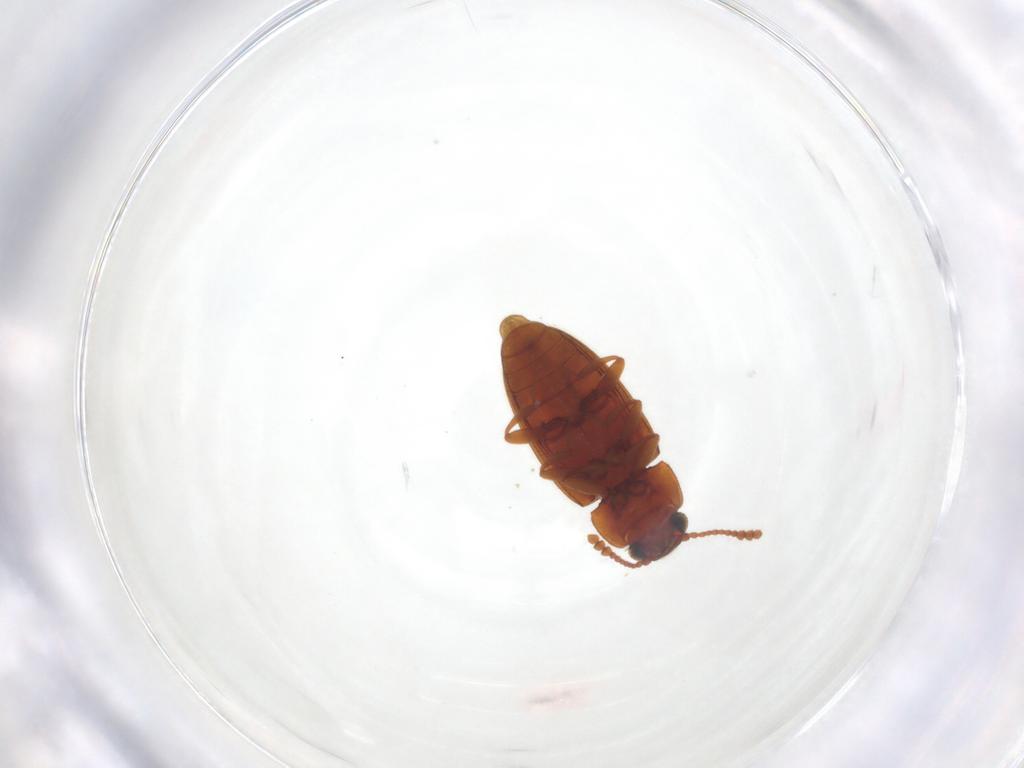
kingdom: Animalia
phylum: Arthropoda
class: Insecta
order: Coleoptera
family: Erotylidae
